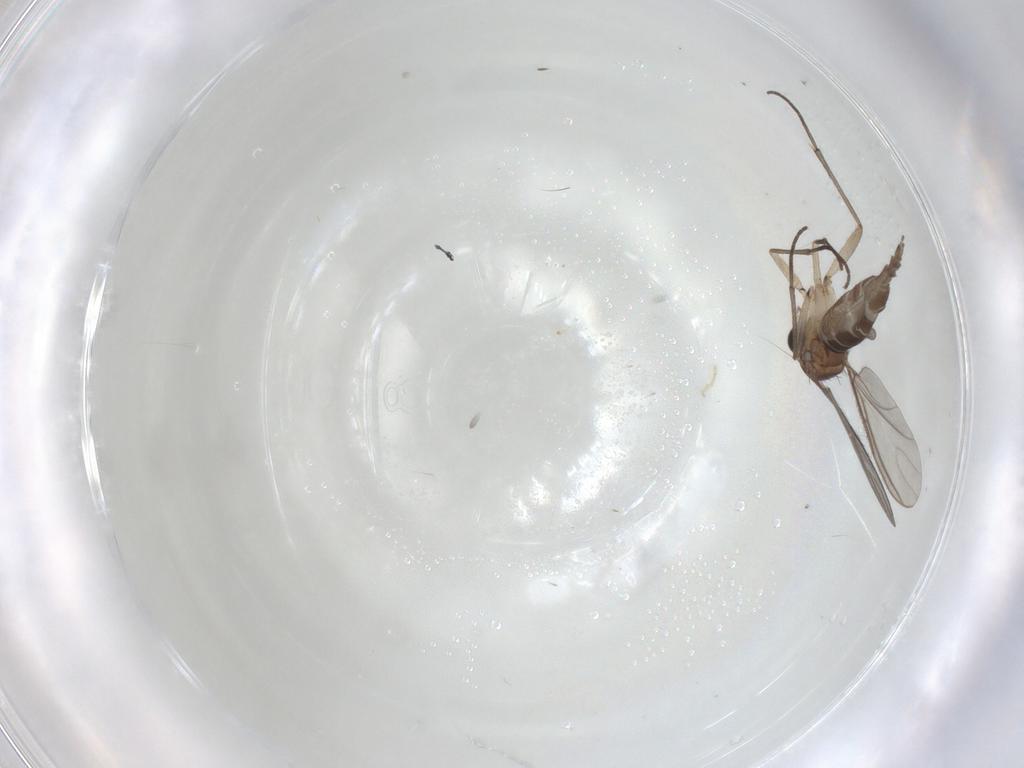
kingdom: Animalia
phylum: Arthropoda
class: Insecta
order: Diptera
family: Sciaridae
